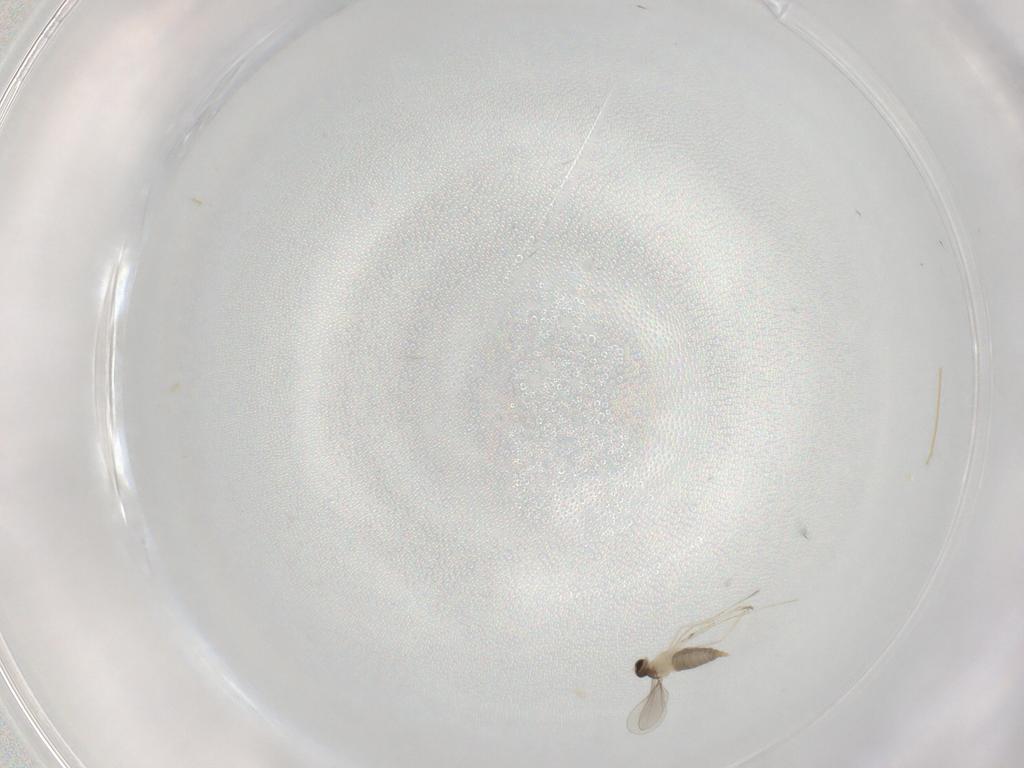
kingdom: Animalia
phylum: Arthropoda
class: Insecta
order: Diptera
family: Cecidomyiidae
